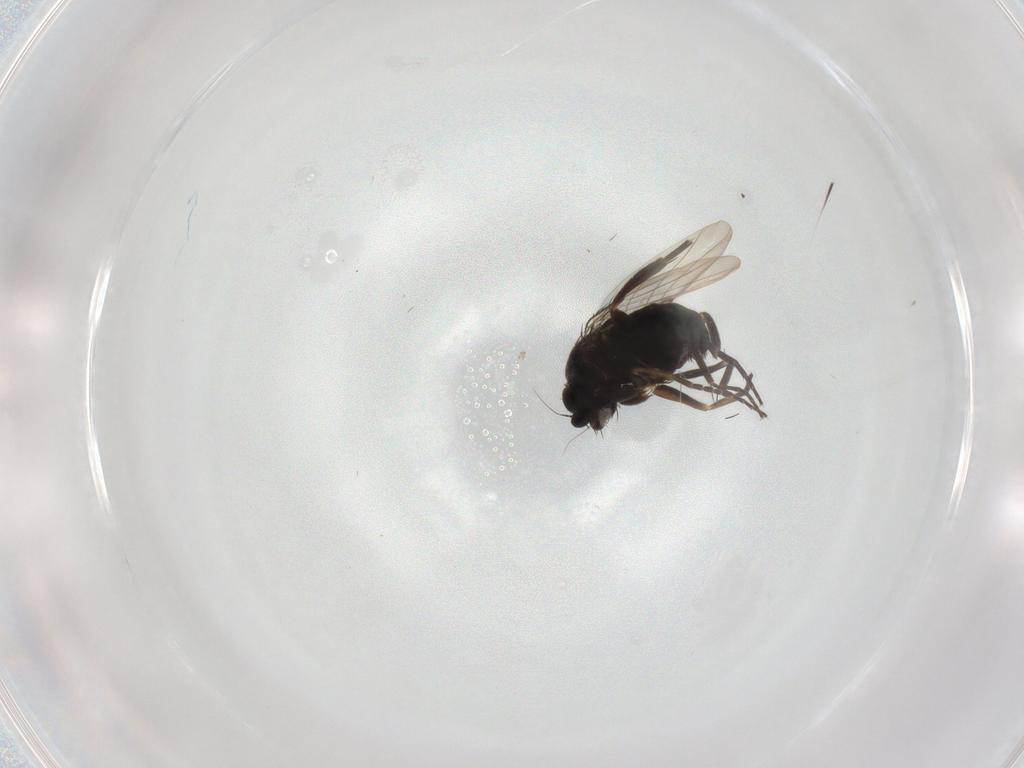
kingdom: Animalia
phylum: Arthropoda
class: Insecta
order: Diptera
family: Phoridae
